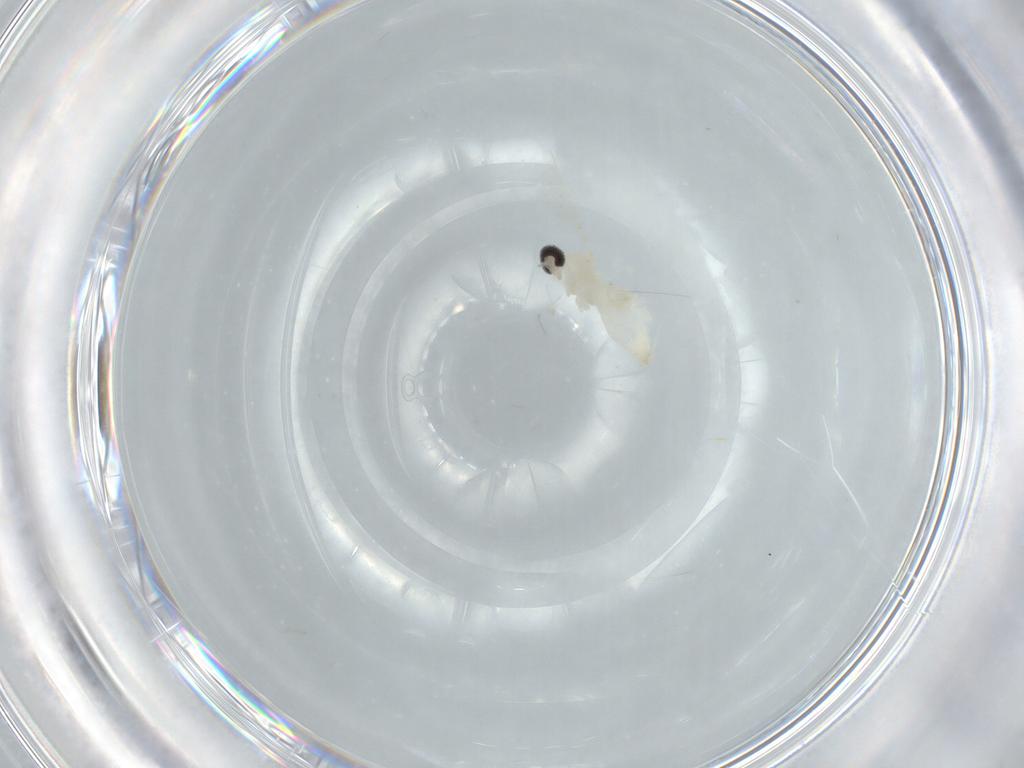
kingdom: Animalia
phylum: Arthropoda
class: Insecta
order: Diptera
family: Cecidomyiidae
